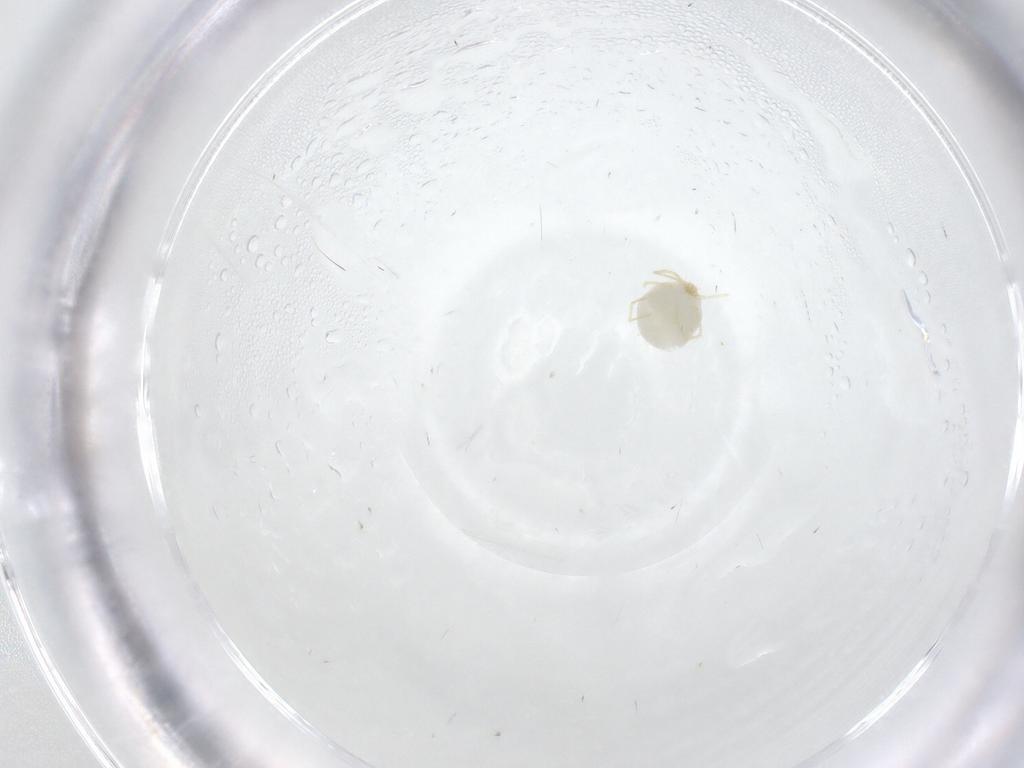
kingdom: Animalia
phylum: Arthropoda
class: Arachnida
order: Trombidiformes
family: Erythraeidae
